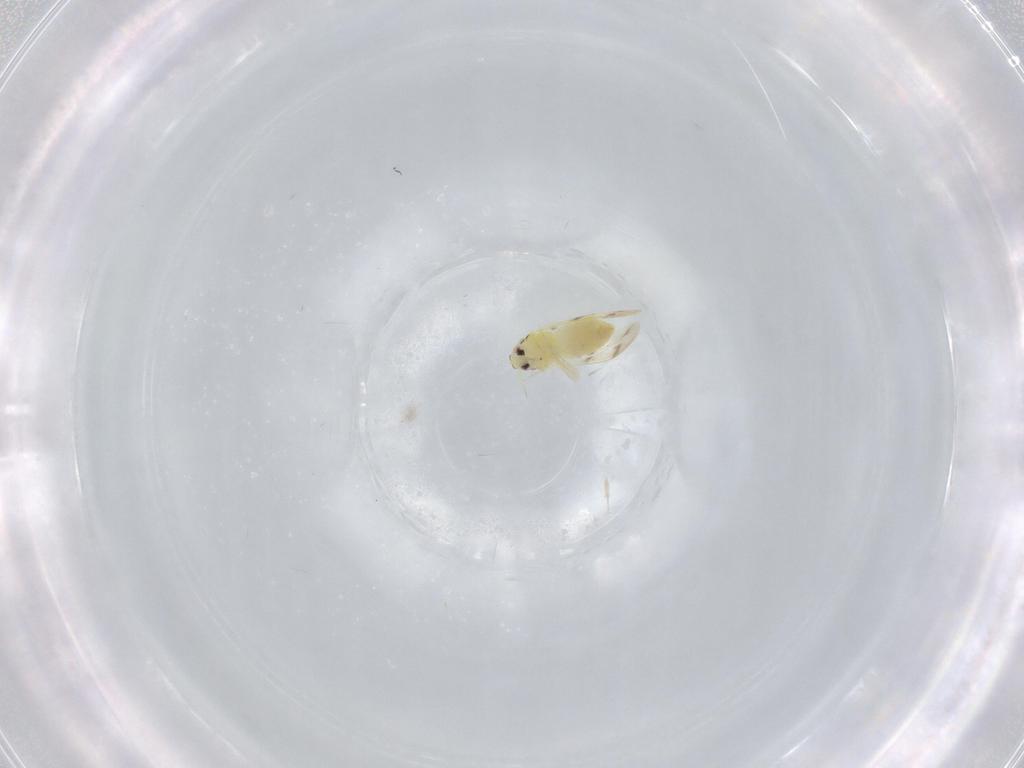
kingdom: Animalia
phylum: Arthropoda
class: Insecta
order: Hemiptera
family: Aleyrodidae
